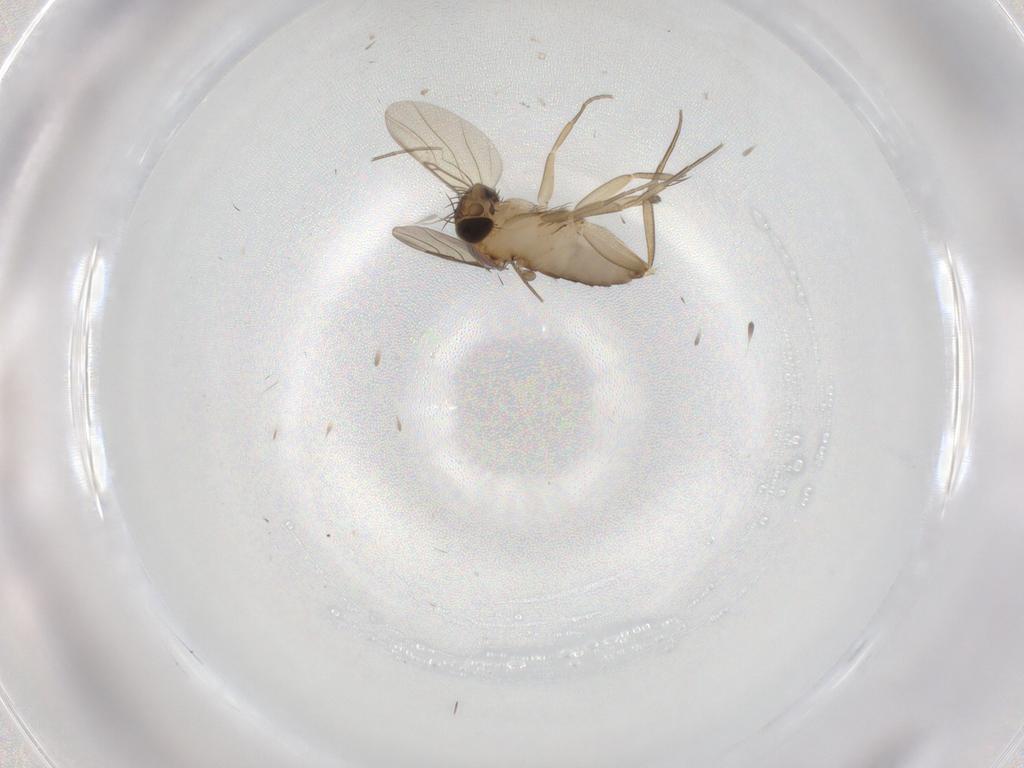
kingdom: Animalia
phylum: Arthropoda
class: Insecta
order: Diptera
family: Phoridae
